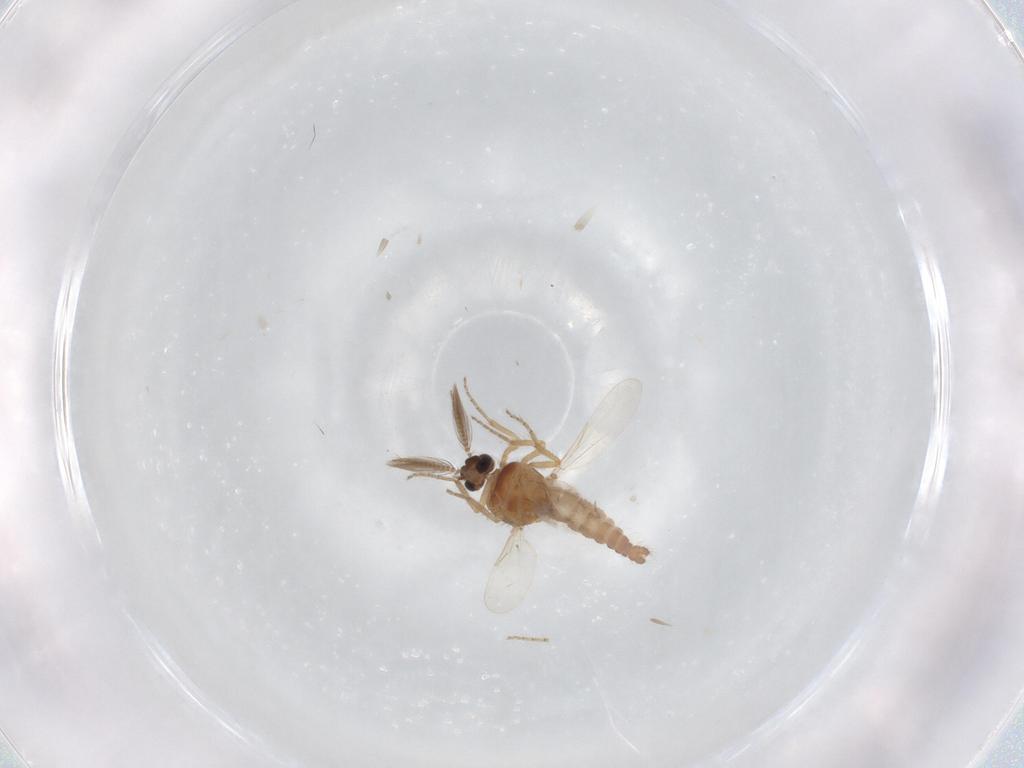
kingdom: Animalia
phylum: Arthropoda
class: Insecta
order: Diptera
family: Ceratopogonidae
